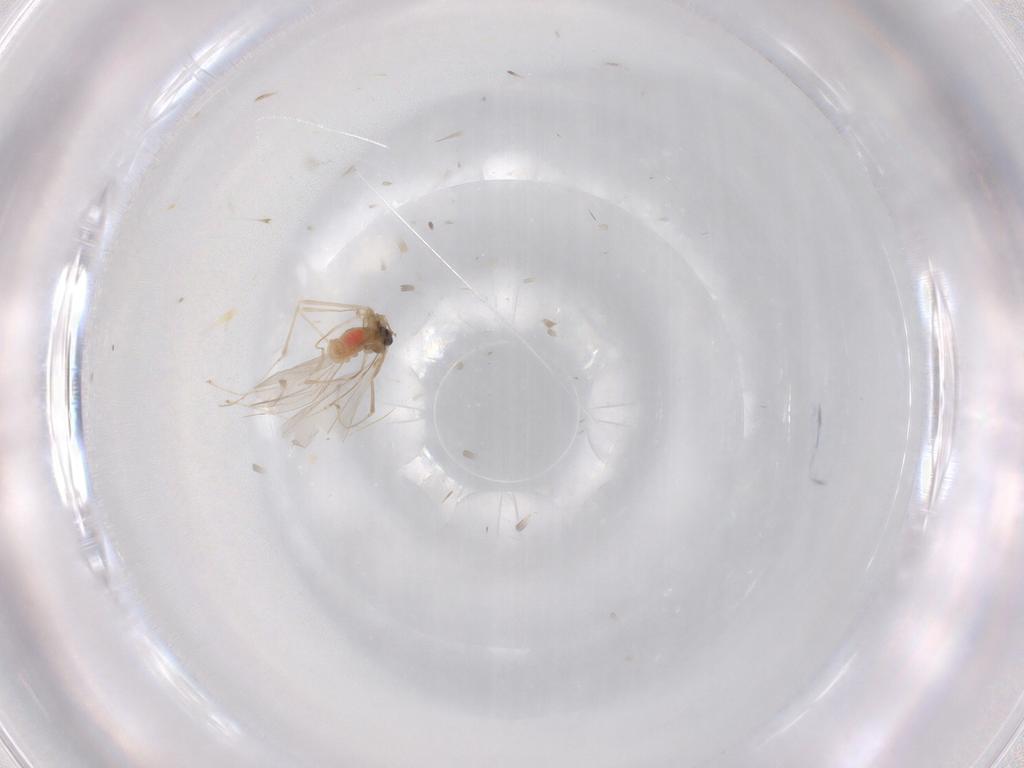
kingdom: Animalia
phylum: Arthropoda
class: Insecta
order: Diptera
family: Cecidomyiidae
